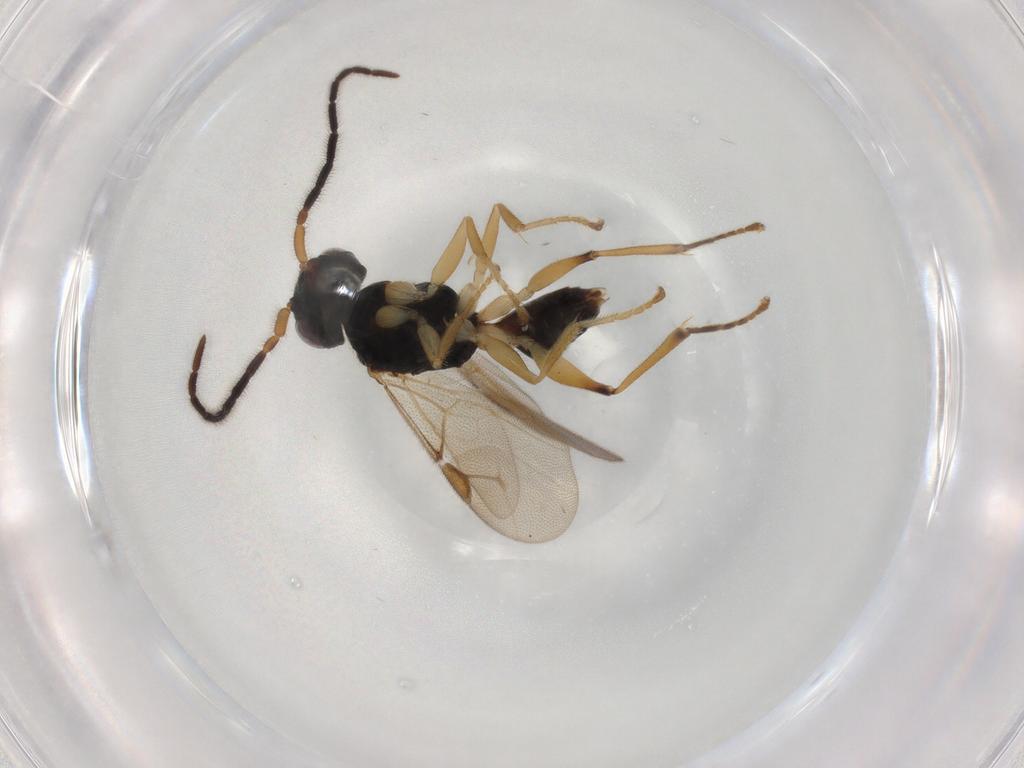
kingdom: Animalia
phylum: Arthropoda
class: Insecta
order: Hymenoptera
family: Dryinidae
